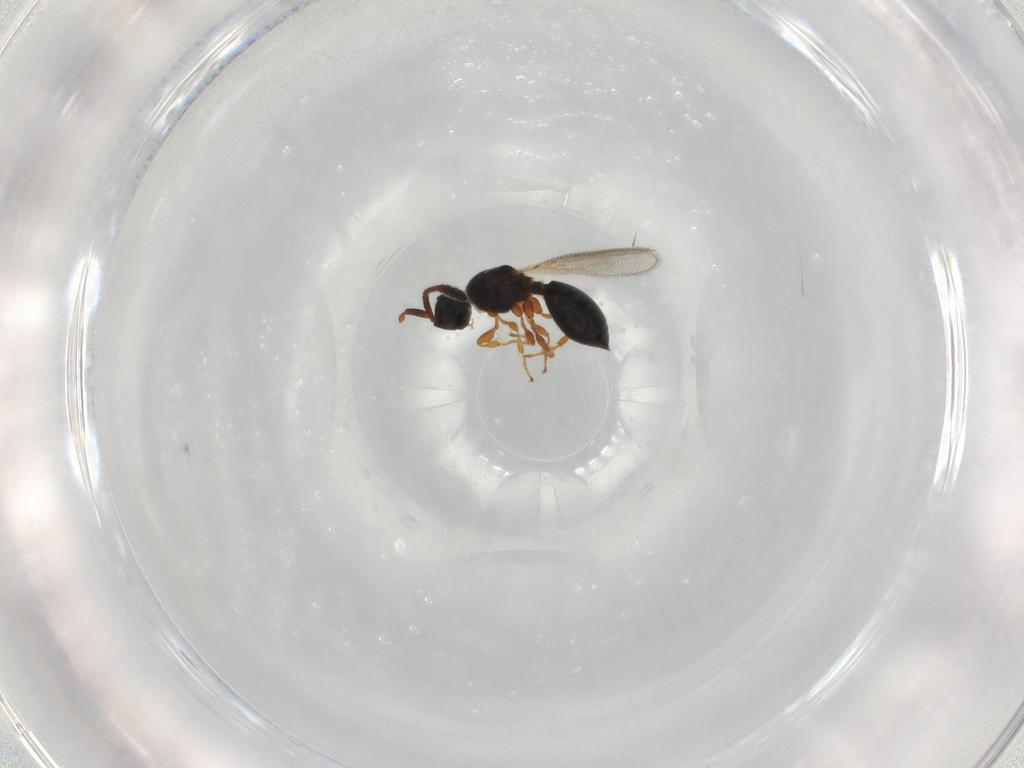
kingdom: Animalia
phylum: Arthropoda
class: Insecta
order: Hymenoptera
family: Diapriidae
